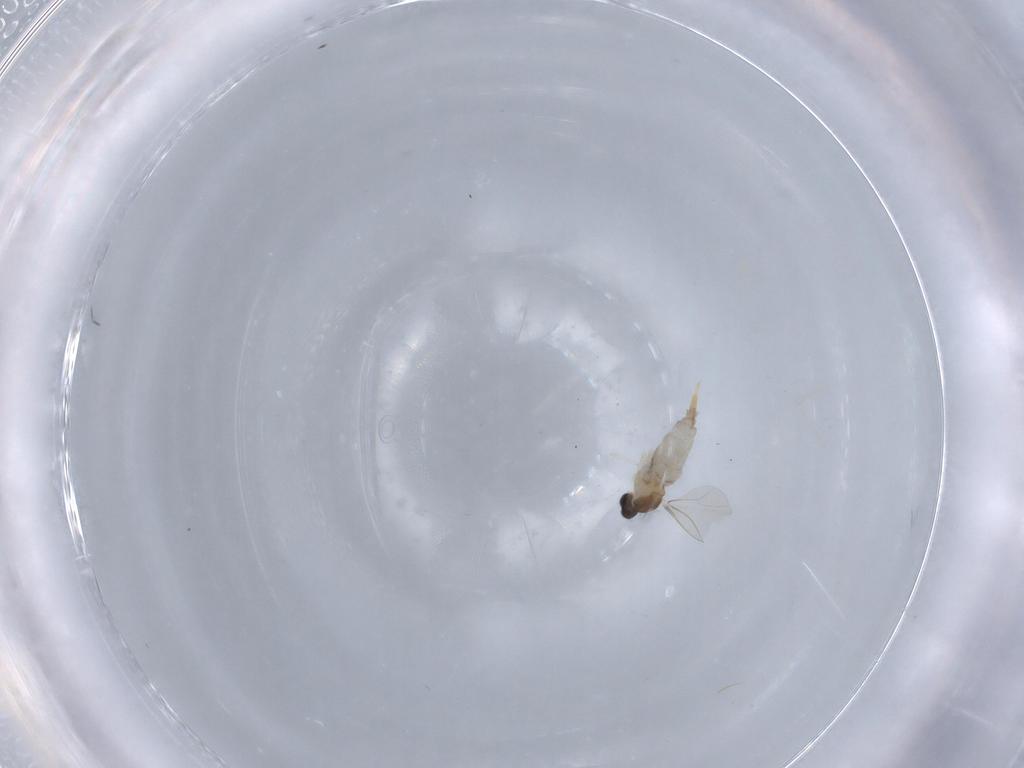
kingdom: Animalia
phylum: Arthropoda
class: Insecta
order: Diptera
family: Cecidomyiidae
